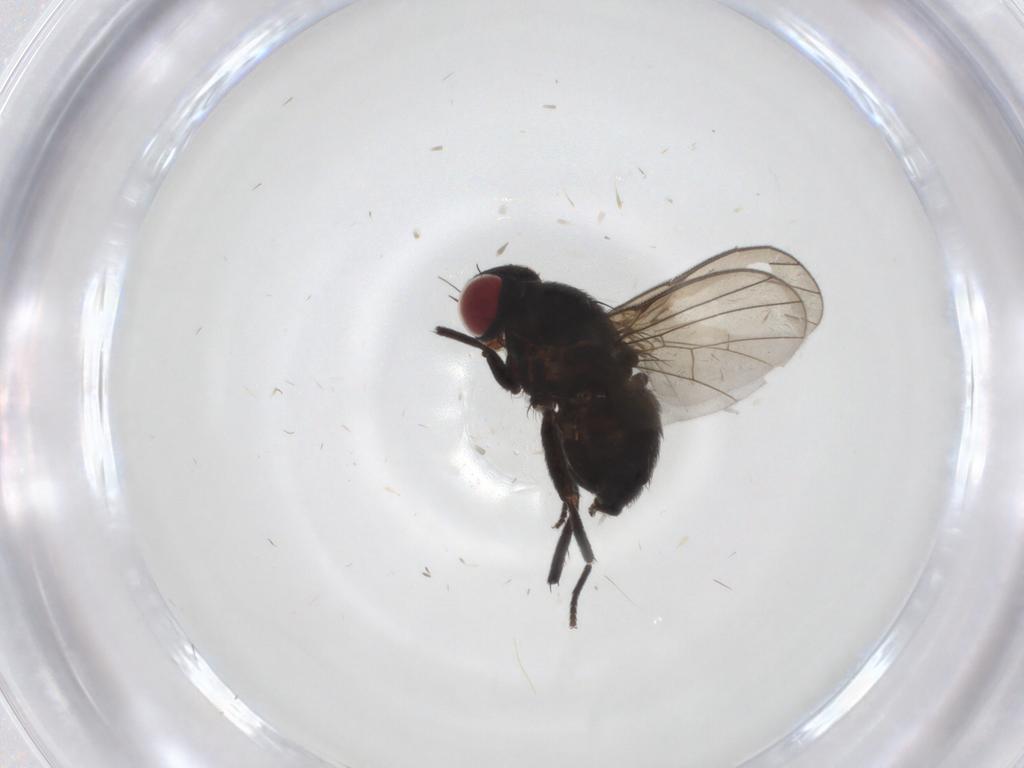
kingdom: Animalia
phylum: Arthropoda
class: Insecta
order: Diptera
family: Agromyzidae
